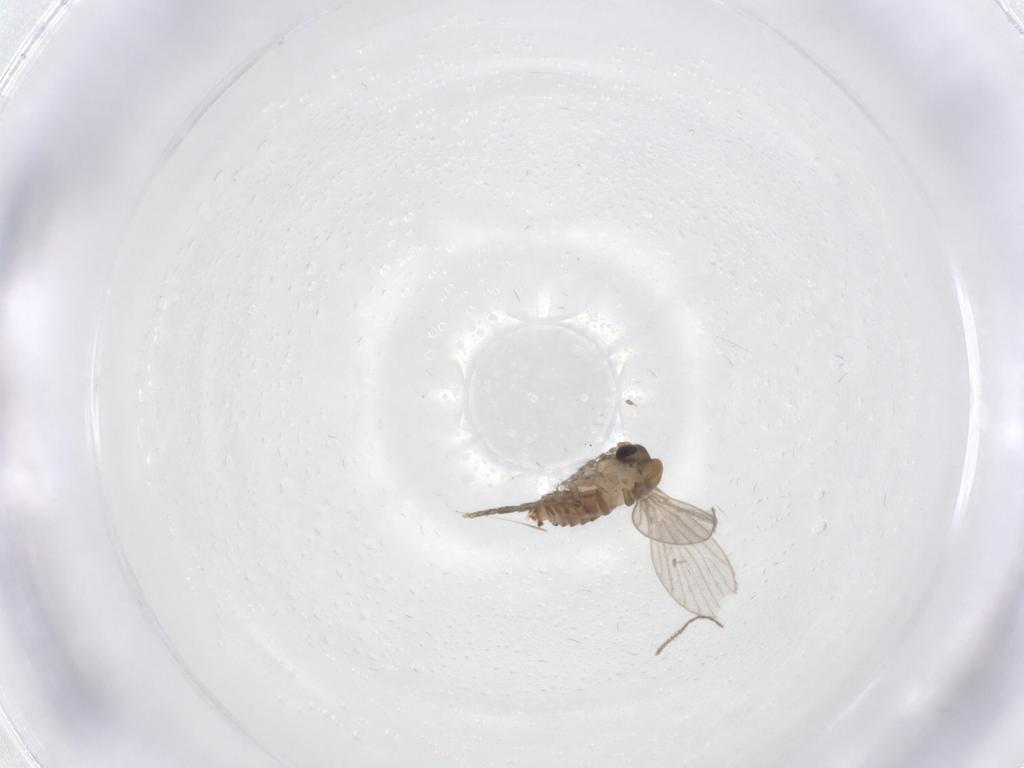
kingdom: Animalia
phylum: Arthropoda
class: Insecta
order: Diptera
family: Ceratopogonidae
